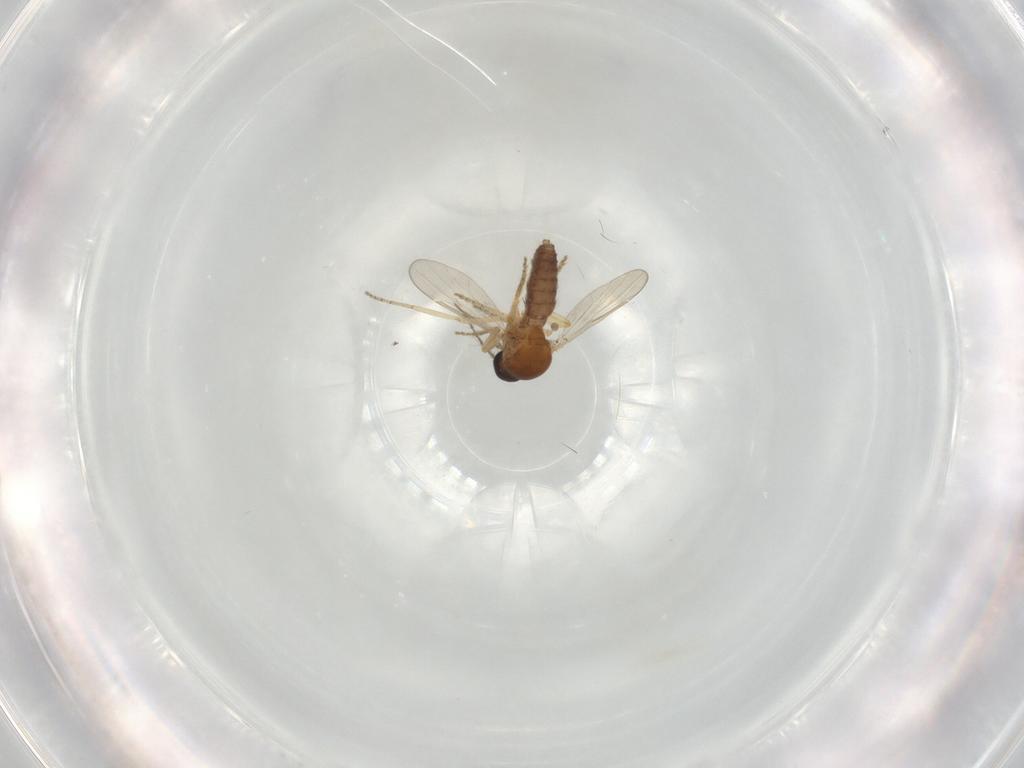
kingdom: Animalia
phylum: Arthropoda
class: Insecta
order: Diptera
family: Ceratopogonidae
